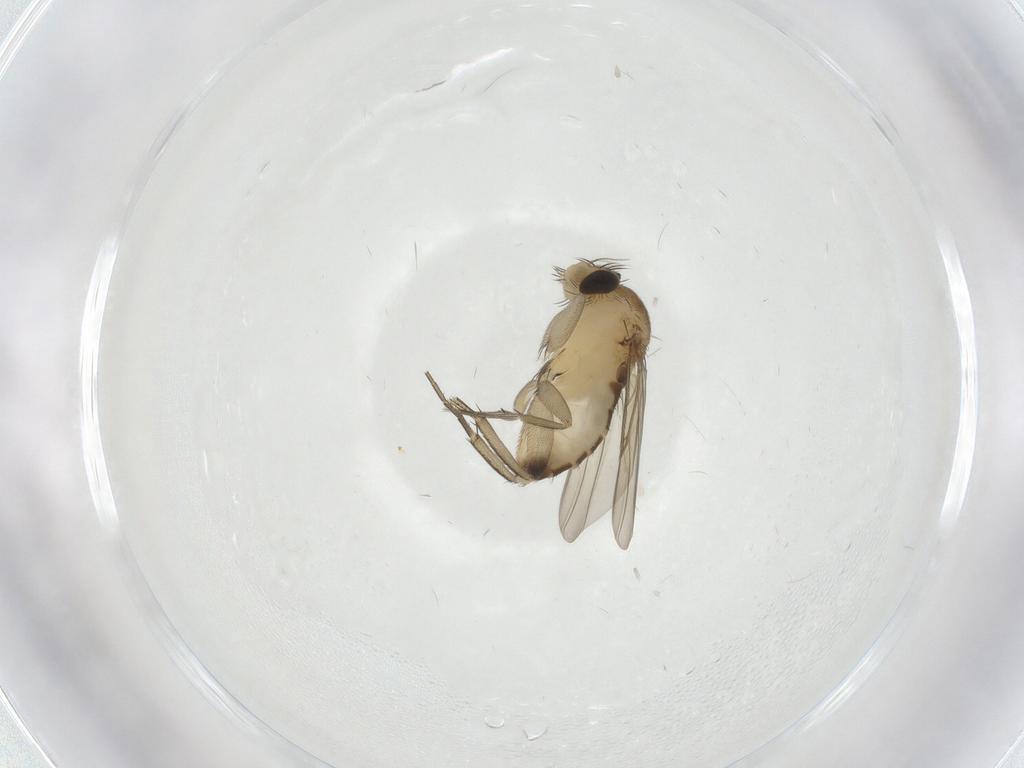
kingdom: Animalia
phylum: Arthropoda
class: Insecta
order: Diptera
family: Phoridae
